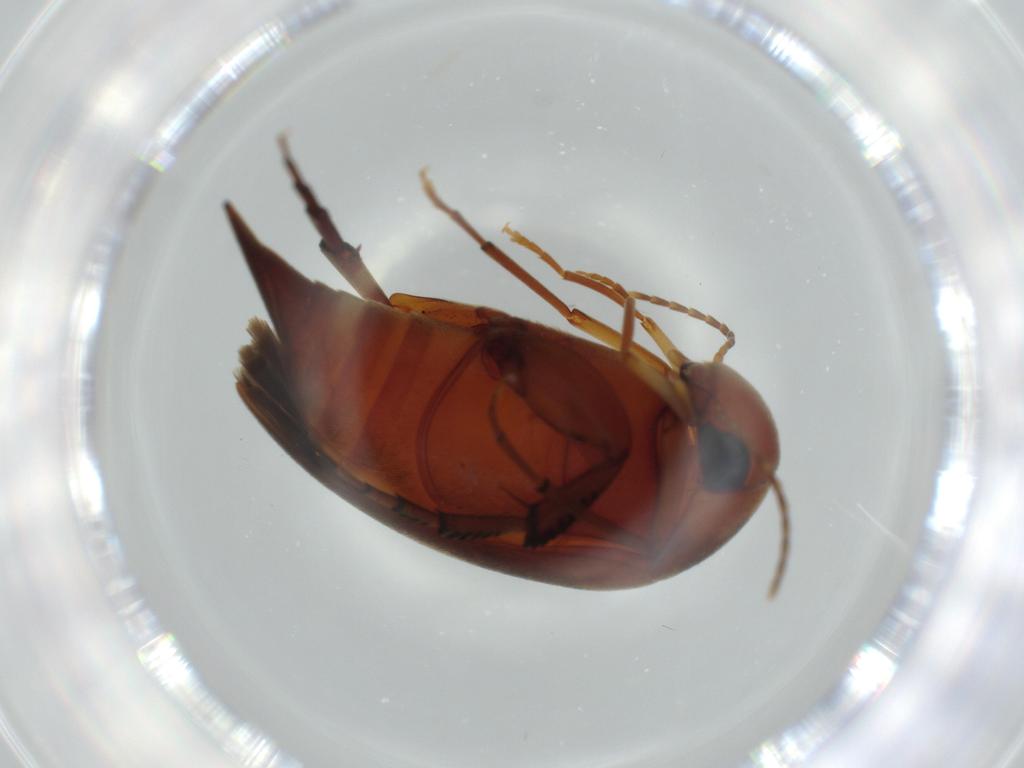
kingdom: Animalia
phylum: Arthropoda
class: Insecta
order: Coleoptera
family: Mordellidae
